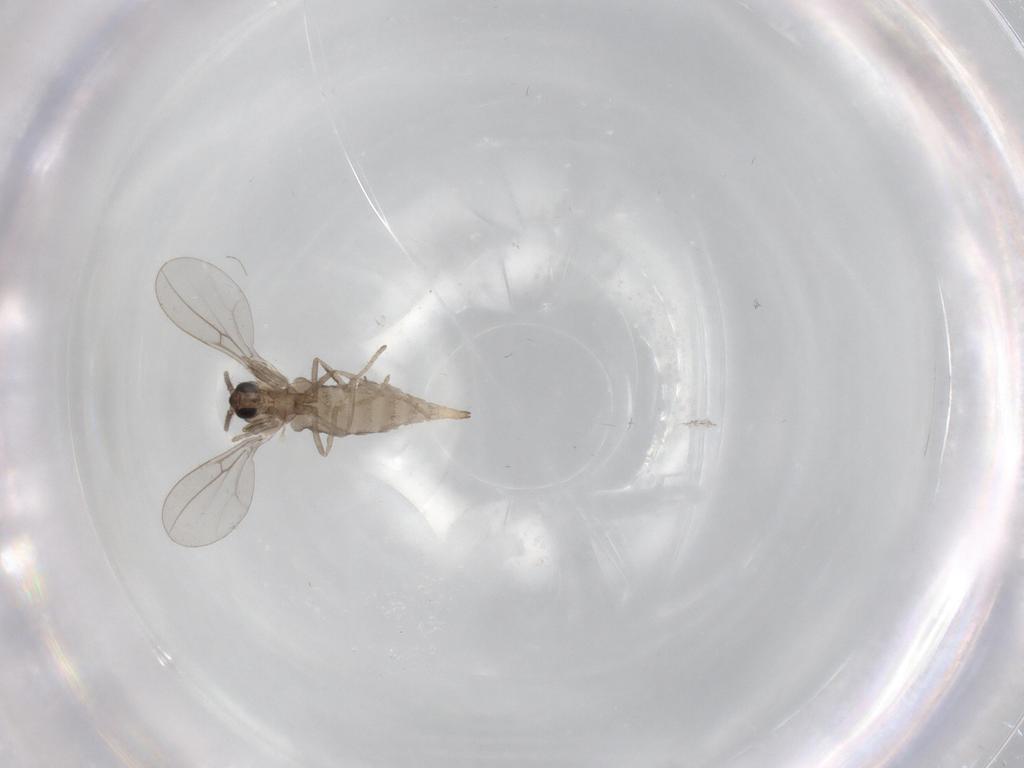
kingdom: Animalia
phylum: Arthropoda
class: Insecta
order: Diptera
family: Cecidomyiidae
